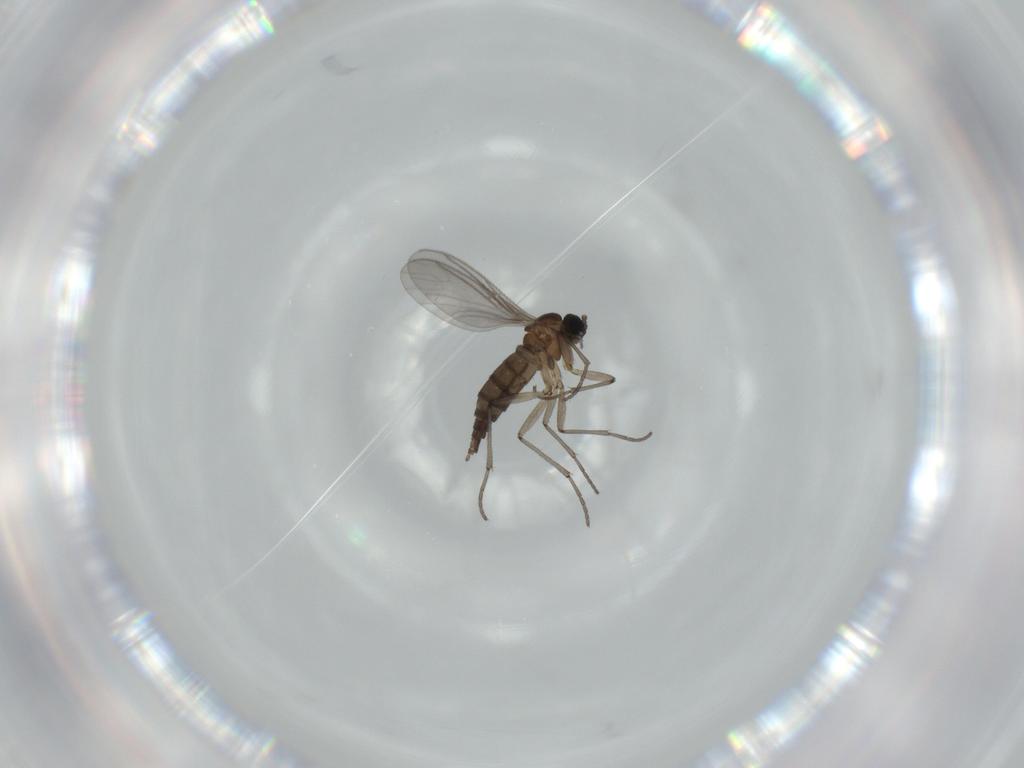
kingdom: Animalia
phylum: Arthropoda
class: Insecta
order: Diptera
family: Sciaridae
